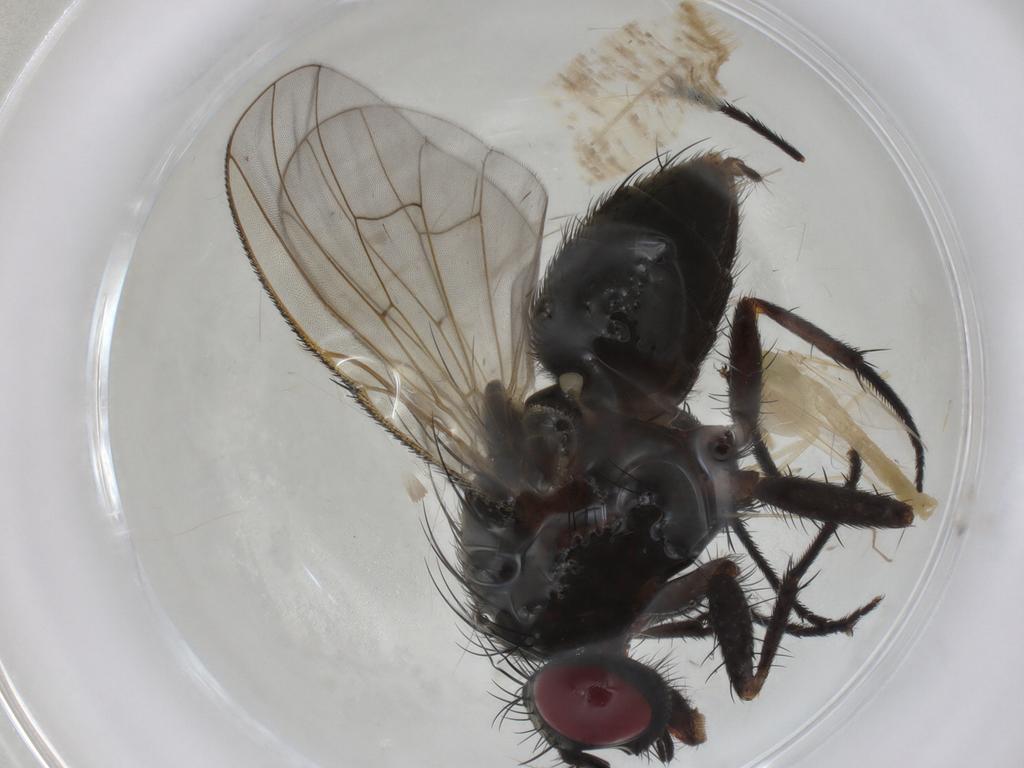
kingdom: Animalia
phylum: Arthropoda
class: Insecta
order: Diptera
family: Muscidae
